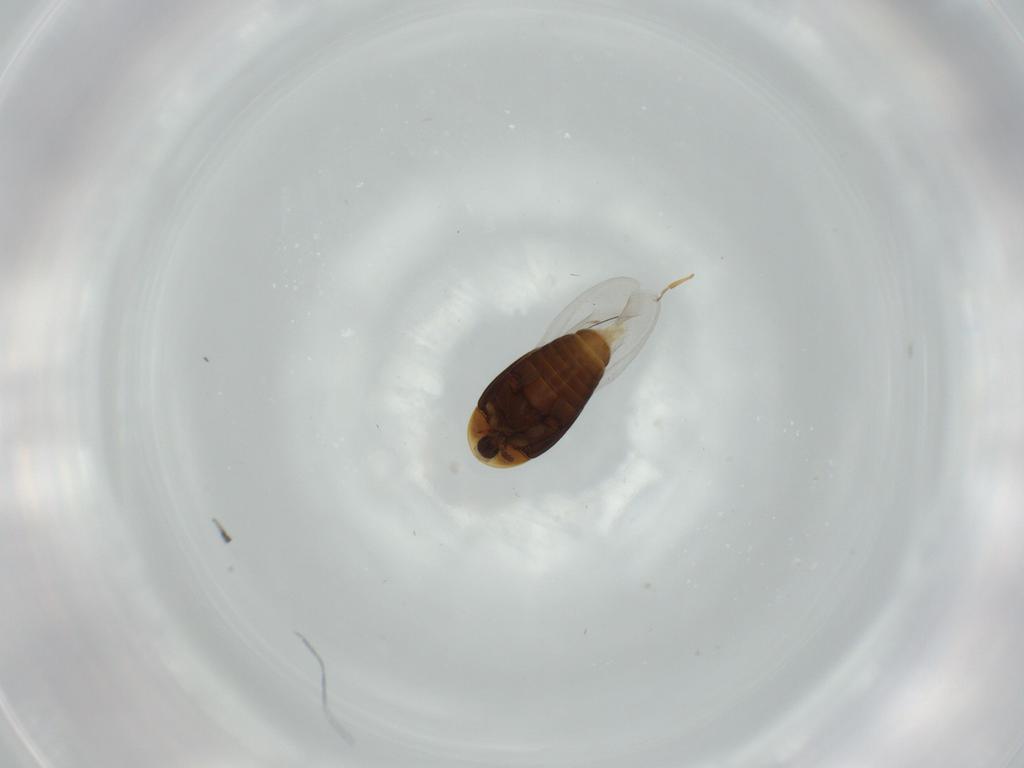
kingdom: Animalia
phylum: Arthropoda
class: Insecta
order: Coleoptera
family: Corylophidae
